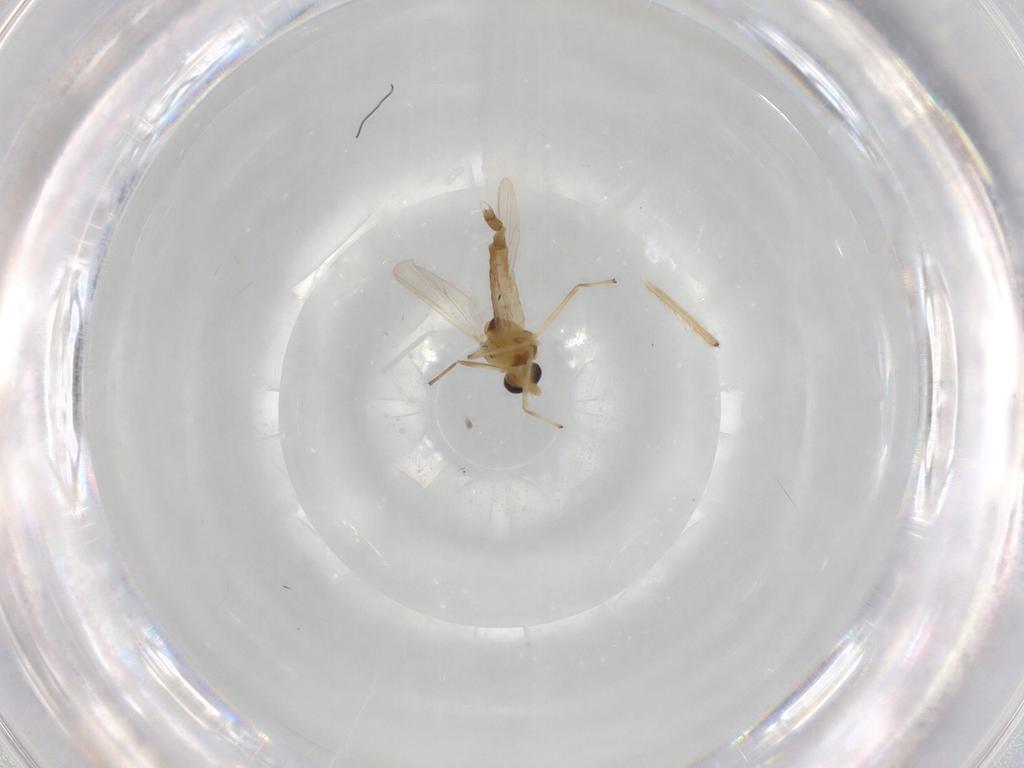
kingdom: Animalia
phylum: Arthropoda
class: Insecta
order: Diptera
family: Chironomidae
